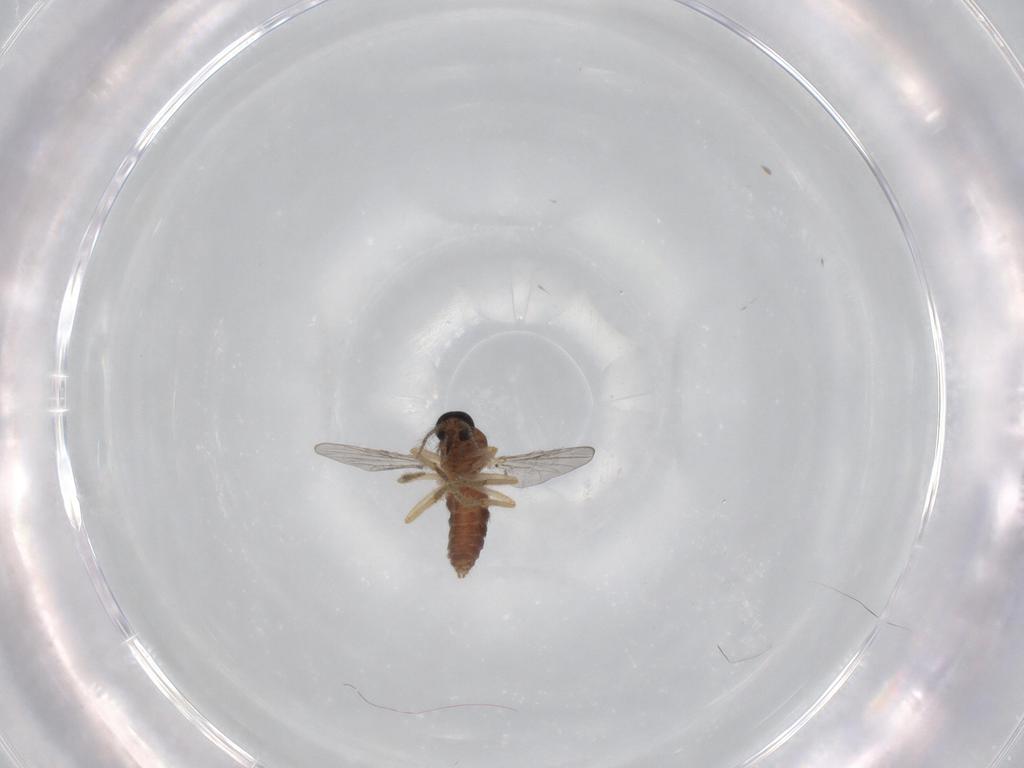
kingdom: Animalia
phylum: Arthropoda
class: Insecta
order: Diptera
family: Ceratopogonidae
